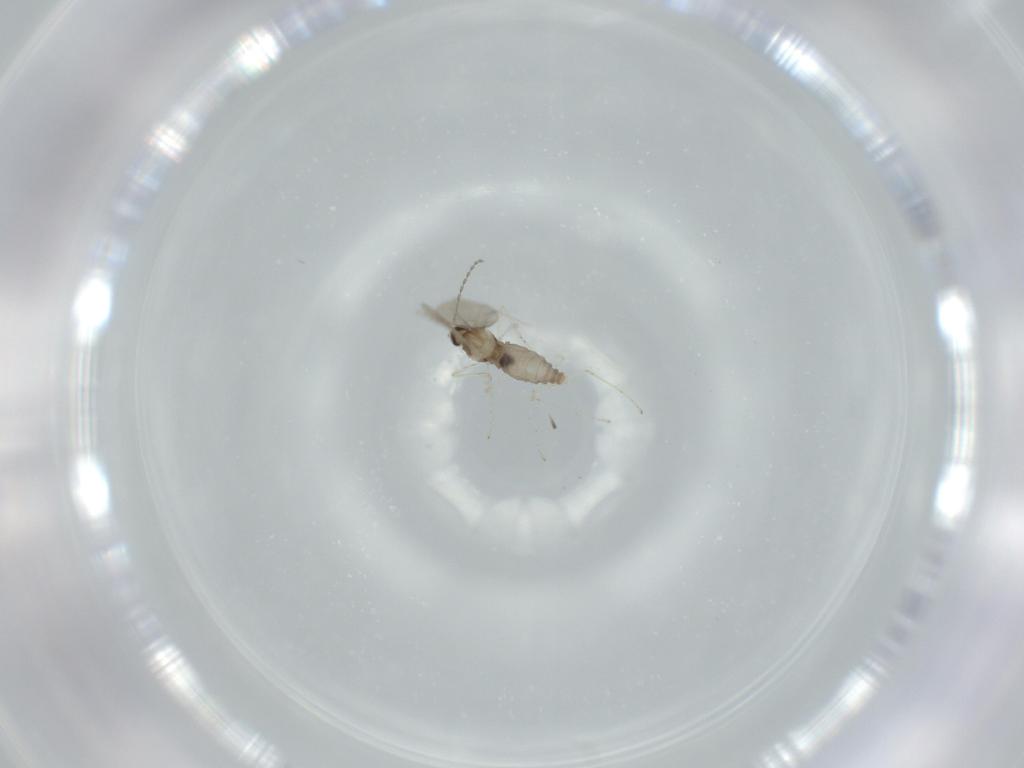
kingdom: Animalia
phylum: Arthropoda
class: Insecta
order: Diptera
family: Cecidomyiidae
